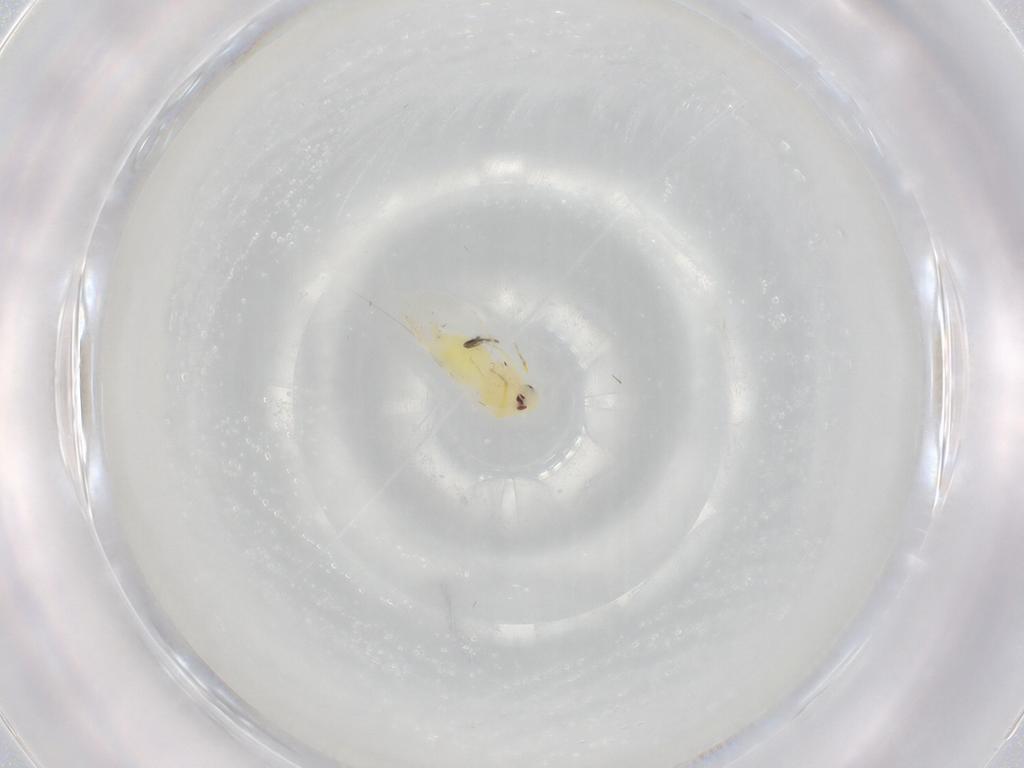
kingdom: Animalia
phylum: Arthropoda
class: Insecta
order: Hemiptera
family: Aleyrodidae
